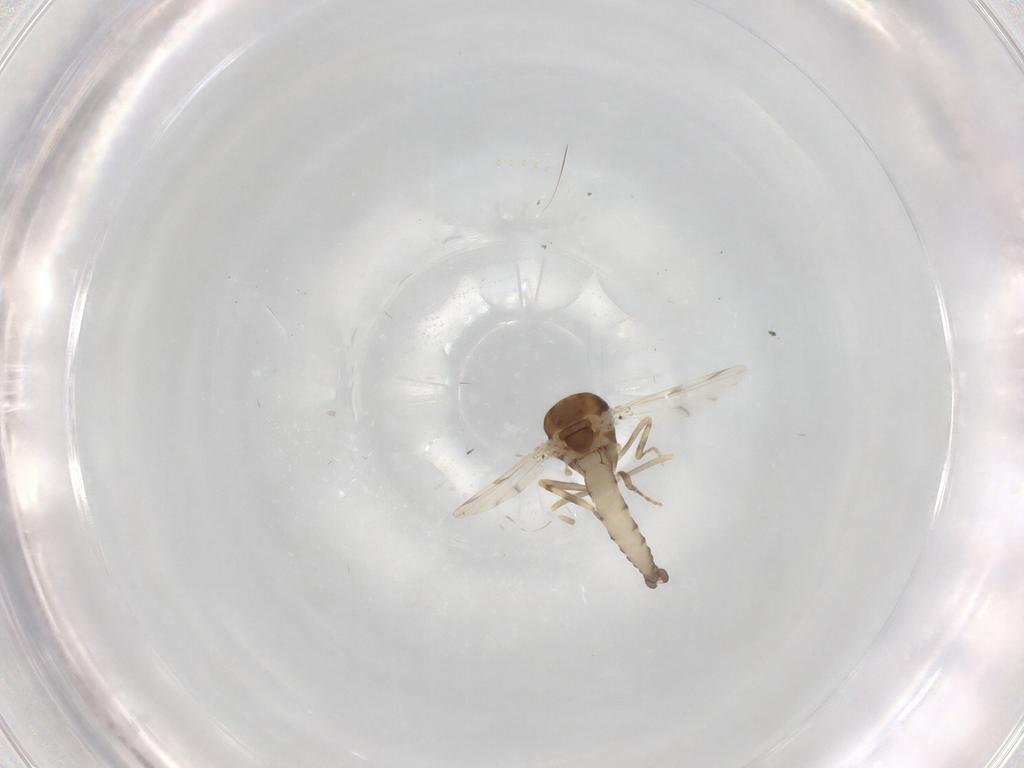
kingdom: Animalia
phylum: Arthropoda
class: Insecta
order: Diptera
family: Ceratopogonidae
